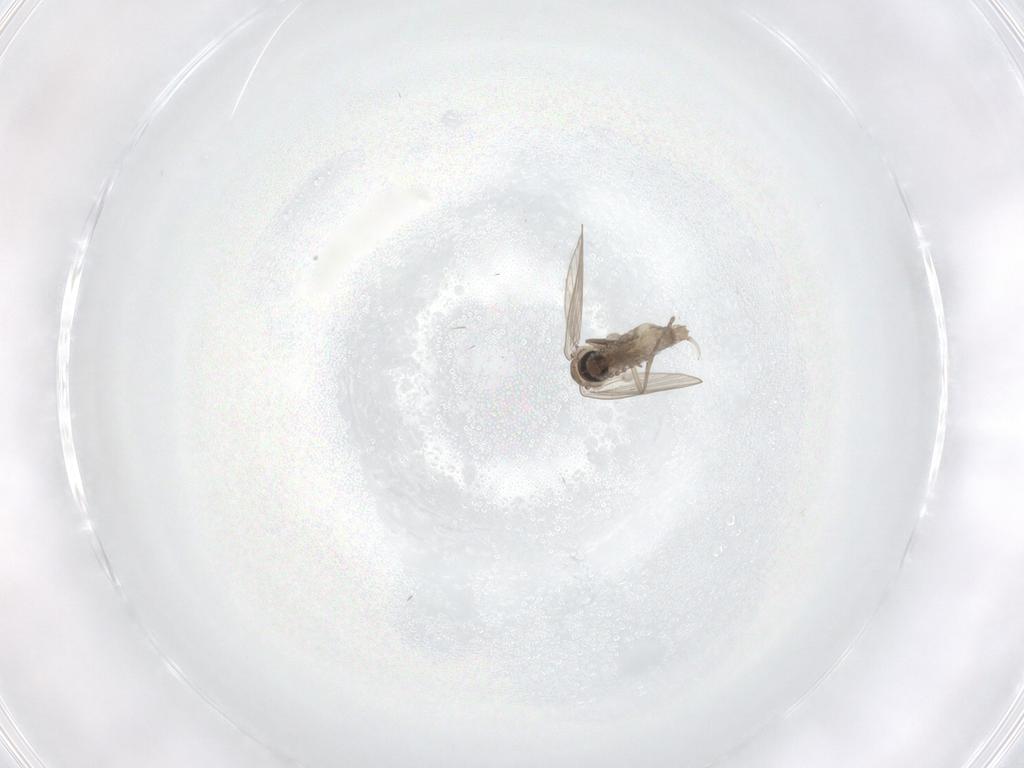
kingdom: Animalia
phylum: Arthropoda
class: Insecta
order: Diptera
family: Psychodidae
